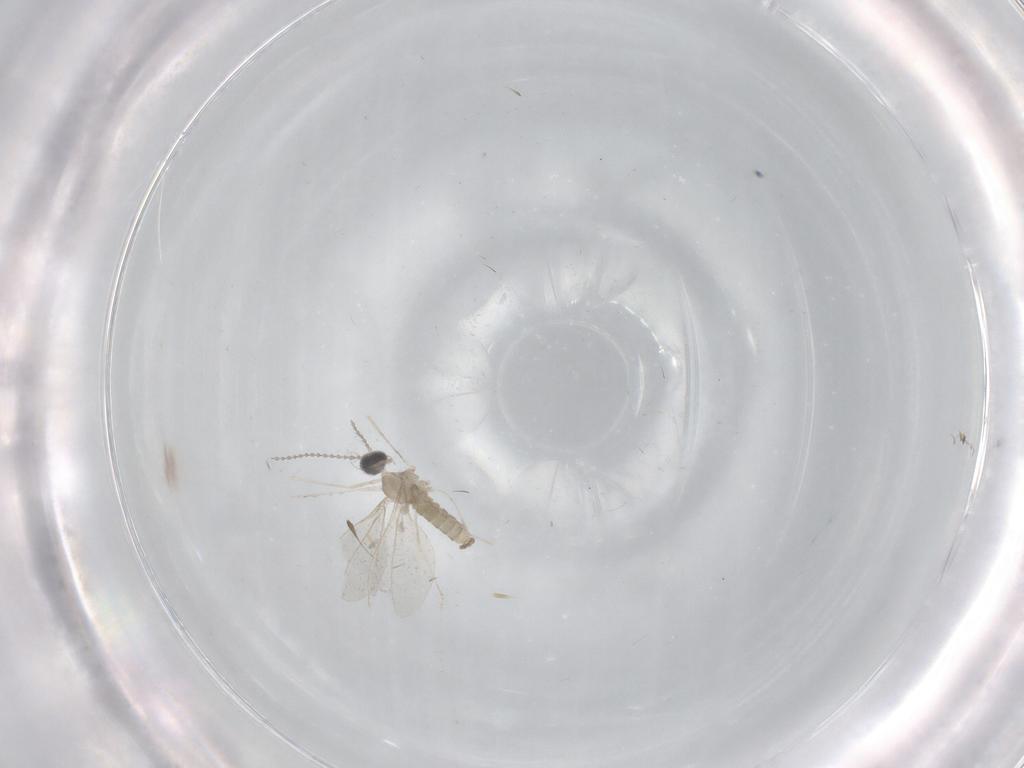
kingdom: Animalia
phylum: Arthropoda
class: Insecta
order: Diptera
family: Cecidomyiidae
